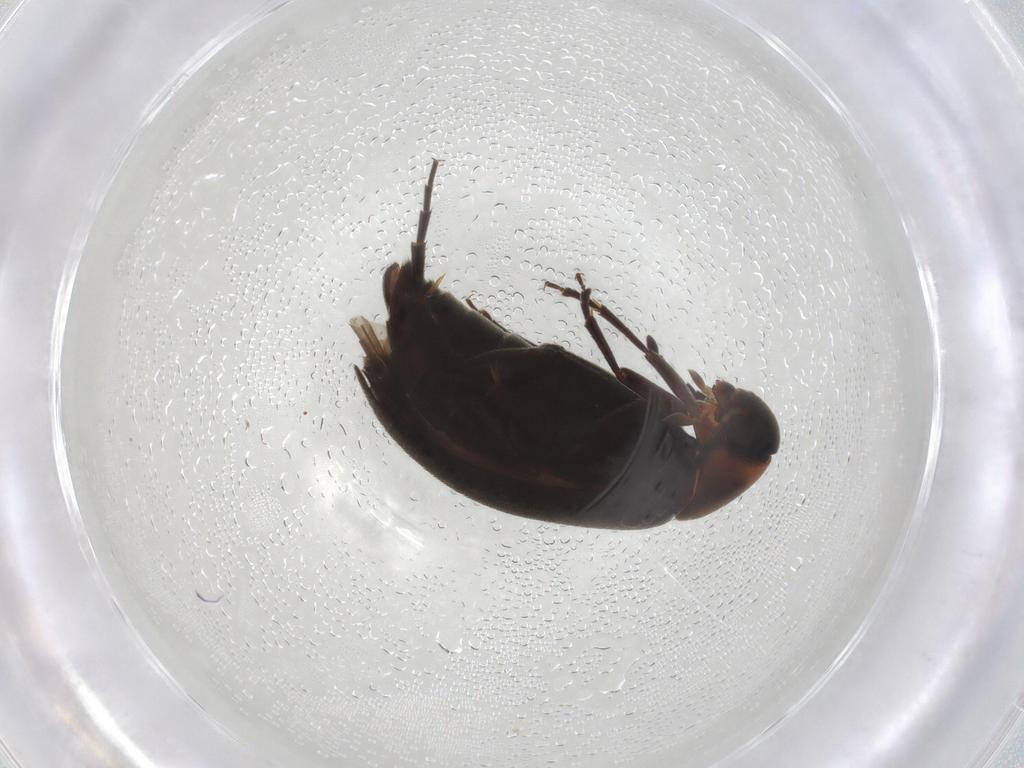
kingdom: Animalia
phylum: Arthropoda
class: Insecta
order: Coleoptera
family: Scraptiidae
